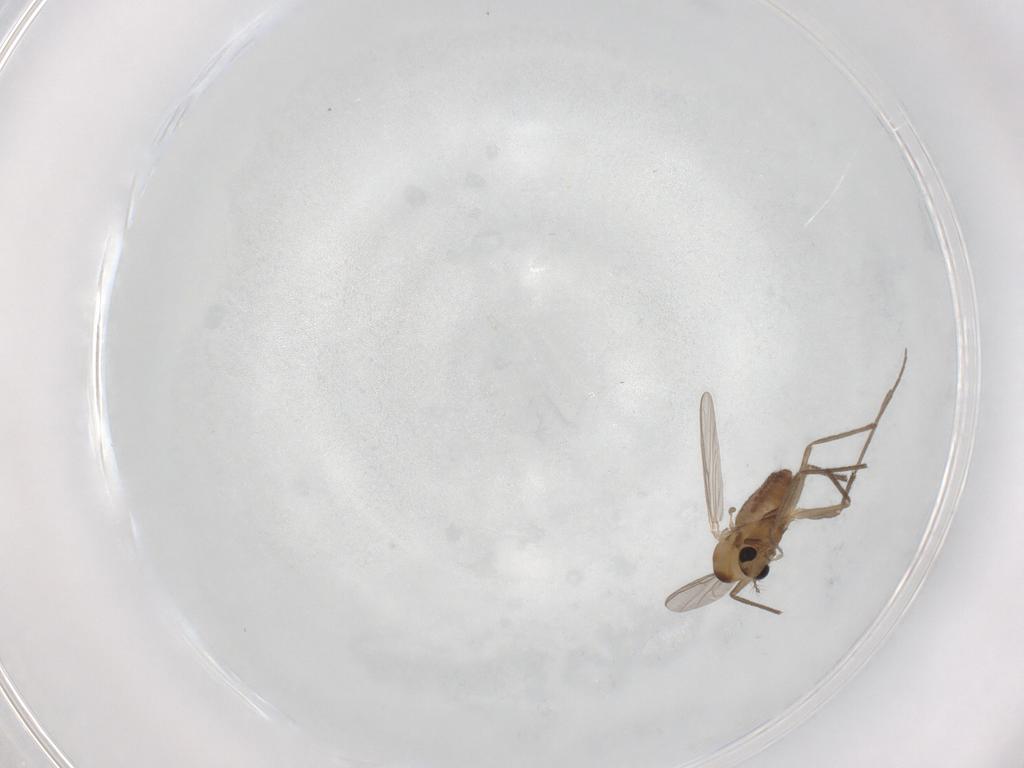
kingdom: Animalia
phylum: Arthropoda
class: Insecta
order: Diptera
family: Chironomidae
